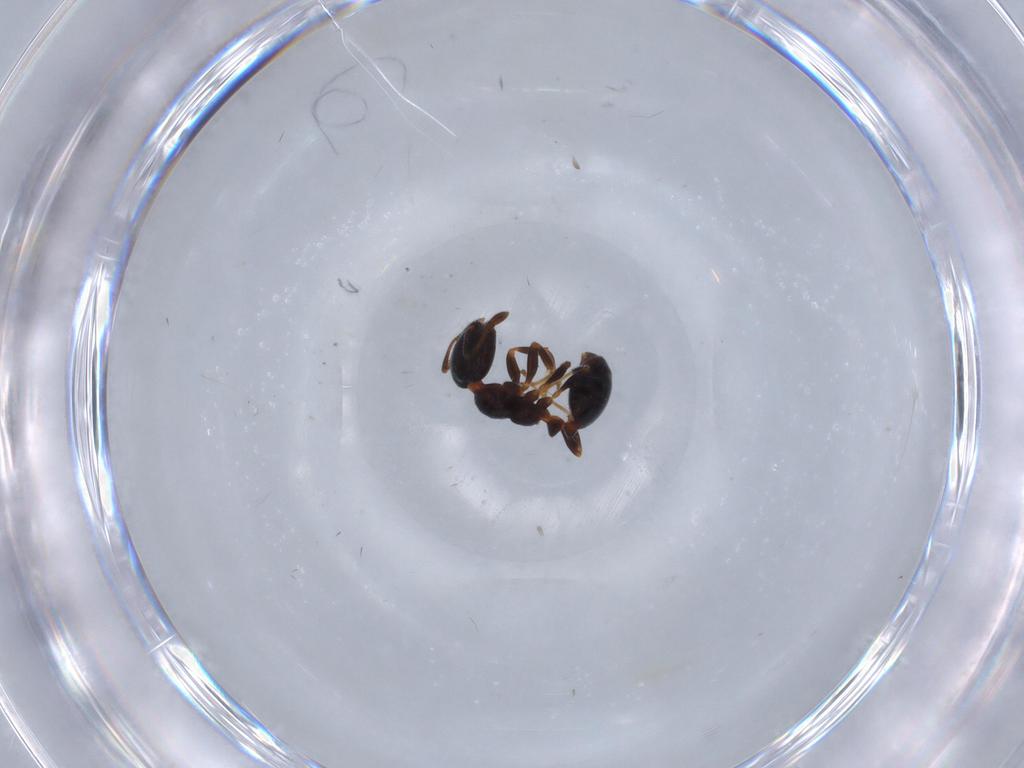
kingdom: Animalia
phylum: Arthropoda
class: Insecta
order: Hymenoptera
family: Formicidae
